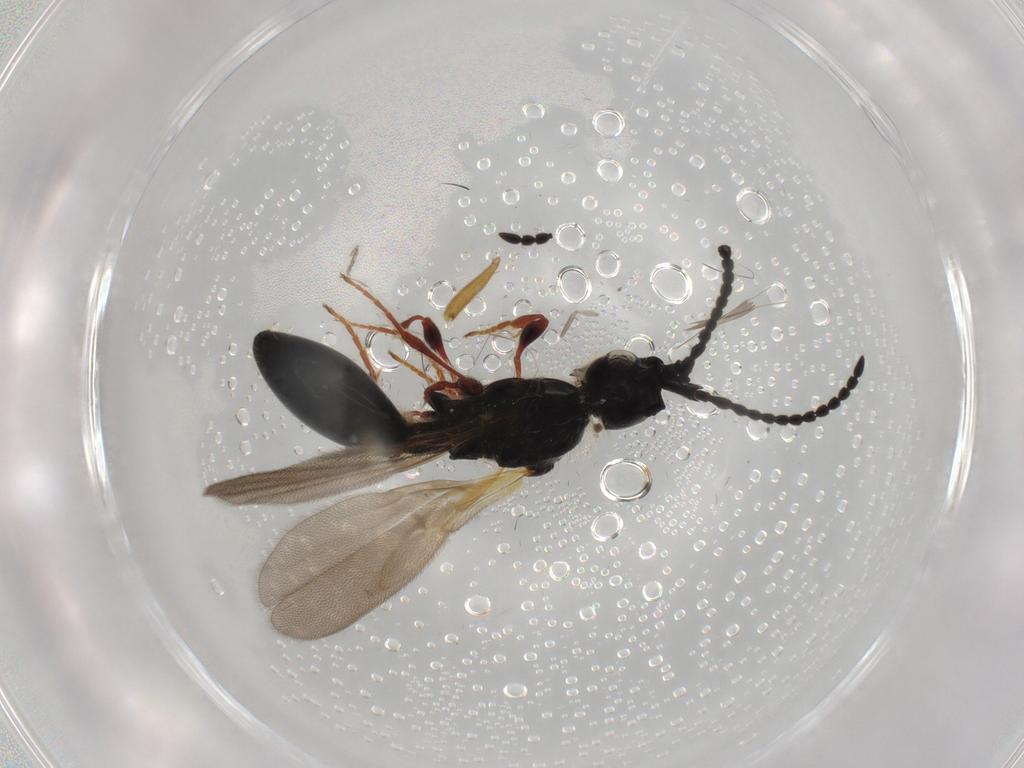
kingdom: Animalia
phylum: Arthropoda
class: Insecta
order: Hymenoptera
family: Diapriidae
